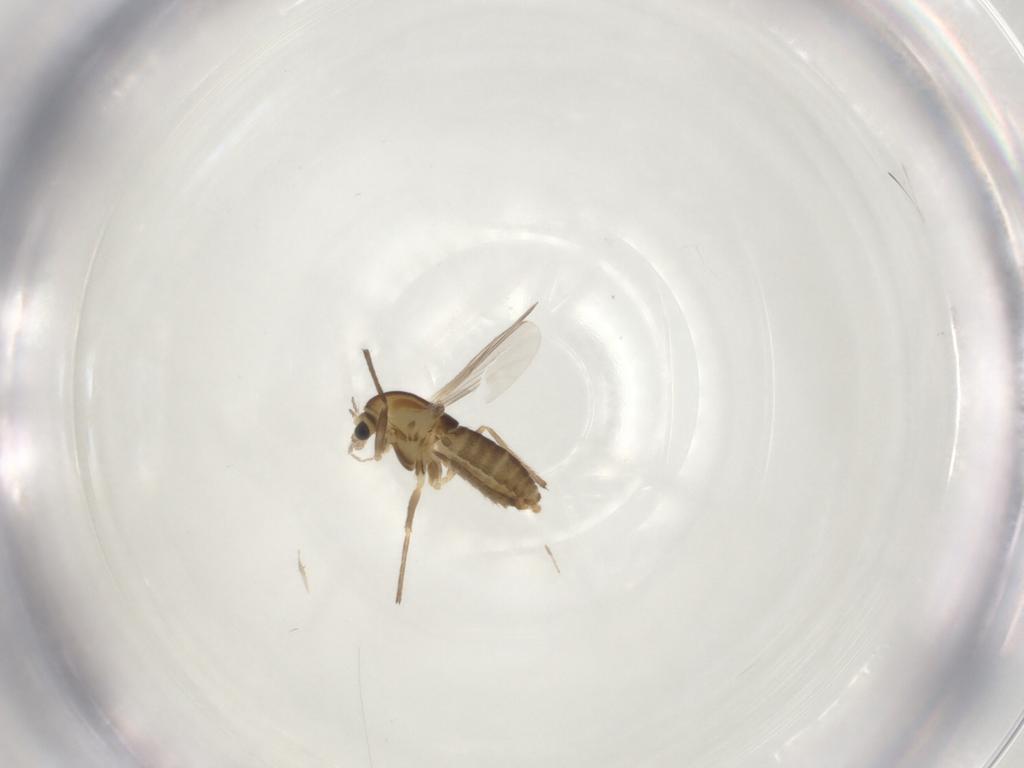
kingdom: Animalia
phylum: Arthropoda
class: Insecta
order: Diptera
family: Chironomidae
